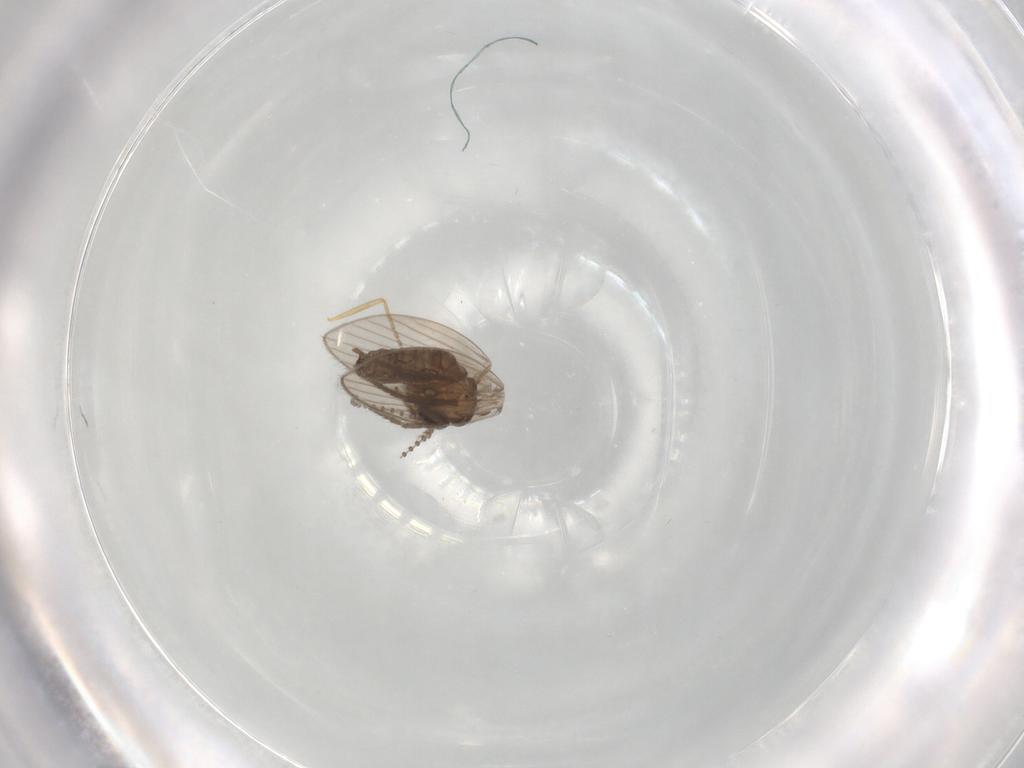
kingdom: Animalia
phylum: Arthropoda
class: Insecta
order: Diptera
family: Psychodidae
